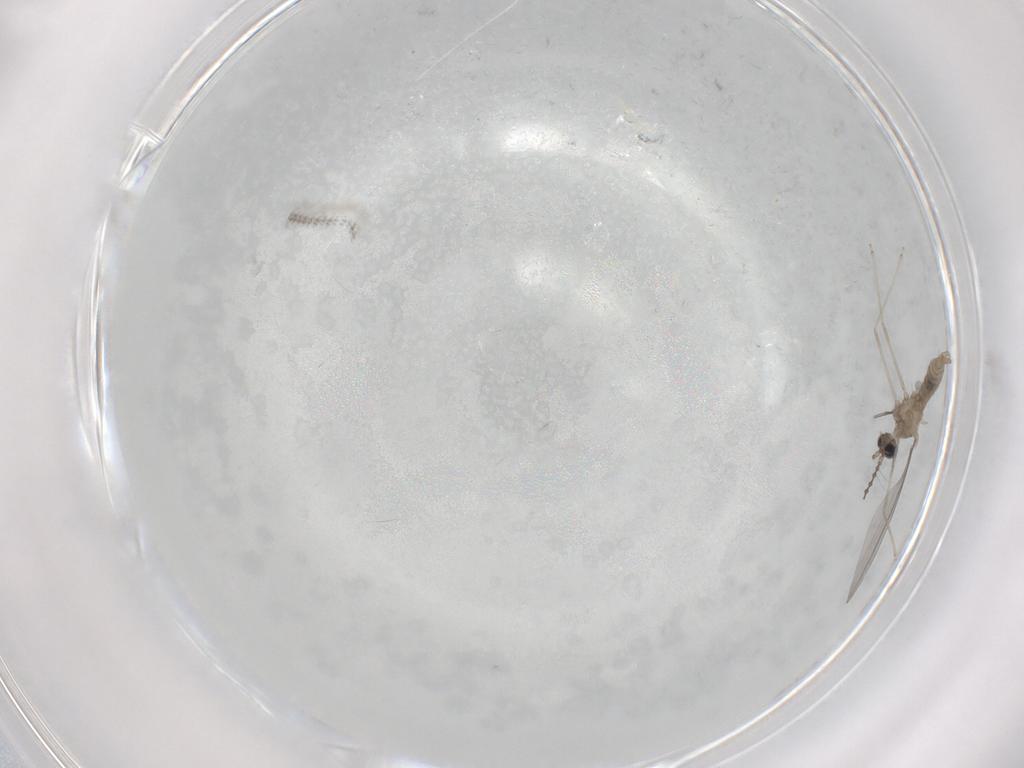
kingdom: Animalia
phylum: Arthropoda
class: Insecta
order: Diptera
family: Cecidomyiidae
